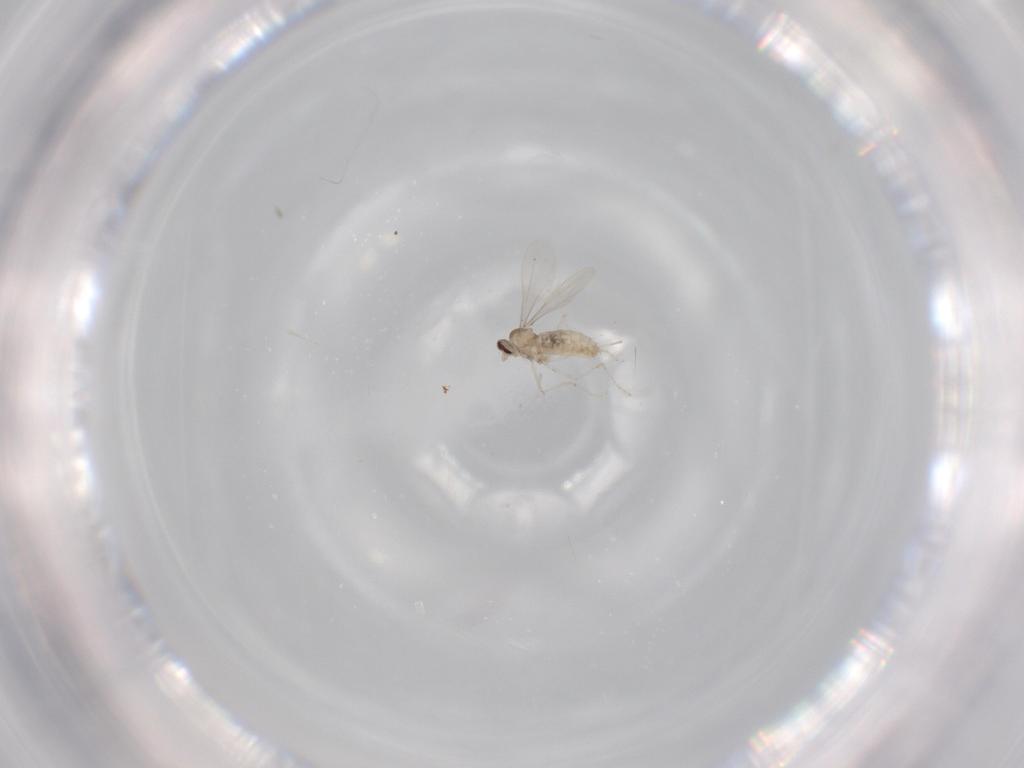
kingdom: Animalia
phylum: Arthropoda
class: Insecta
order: Diptera
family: Cecidomyiidae
